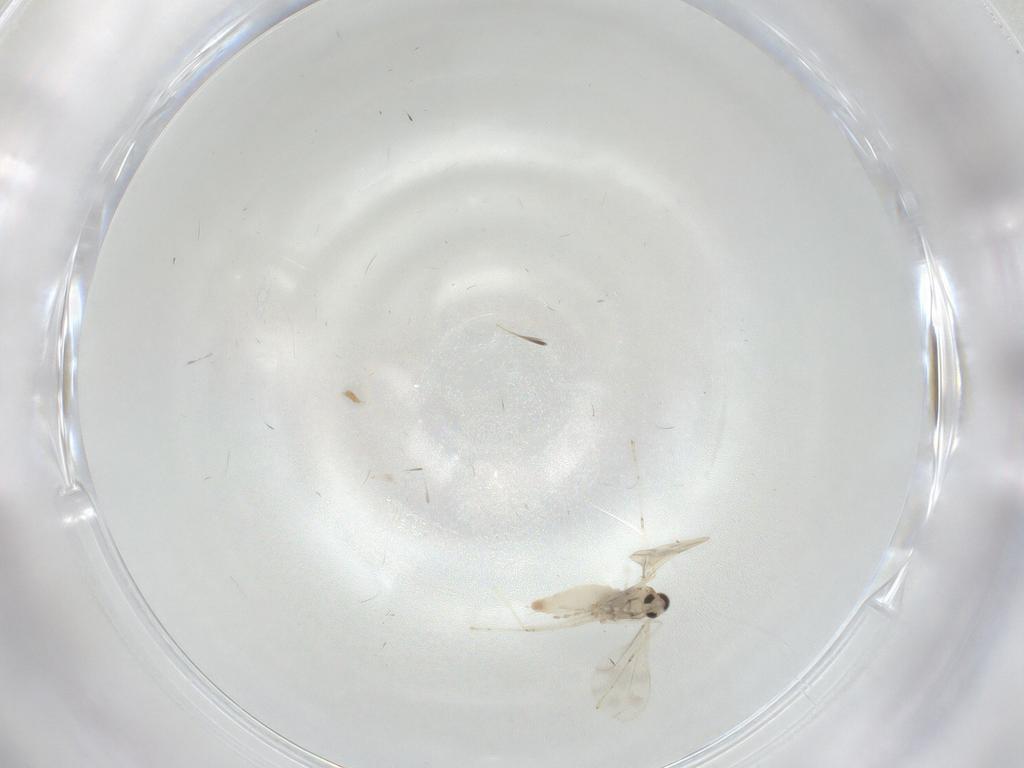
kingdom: Animalia
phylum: Arthropoda
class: Insecta
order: Diptera
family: Cecidomyiidae
